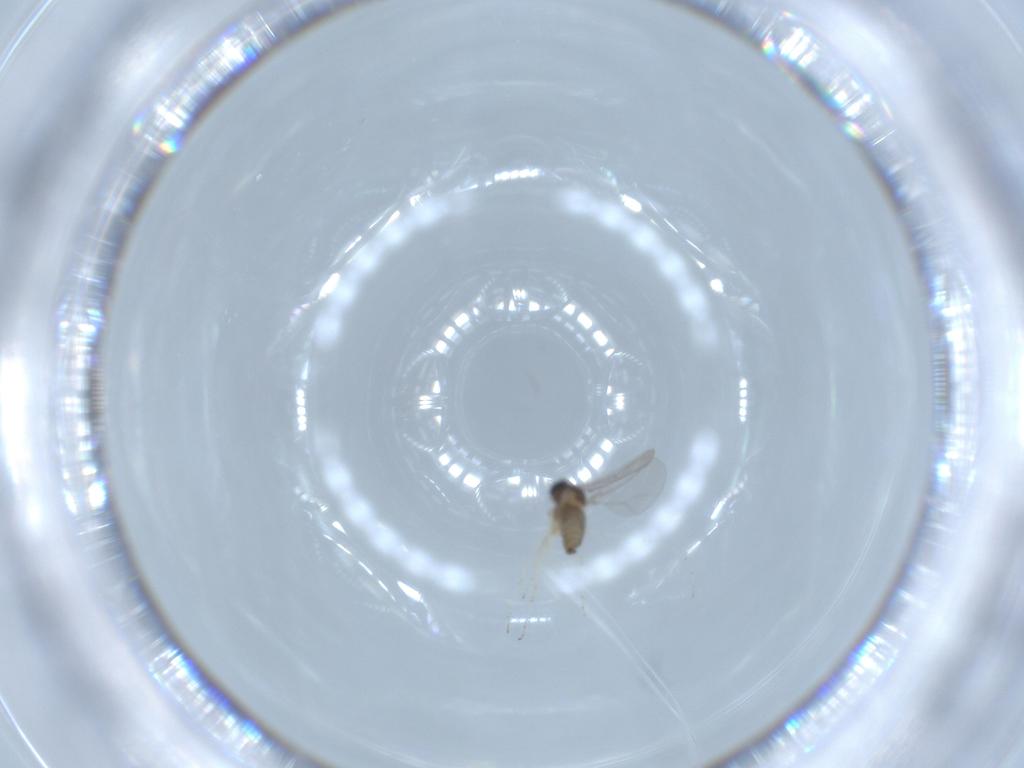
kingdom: Animalia
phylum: Arthropoda
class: Insecta
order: Diptera
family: Cecidomyiidae
